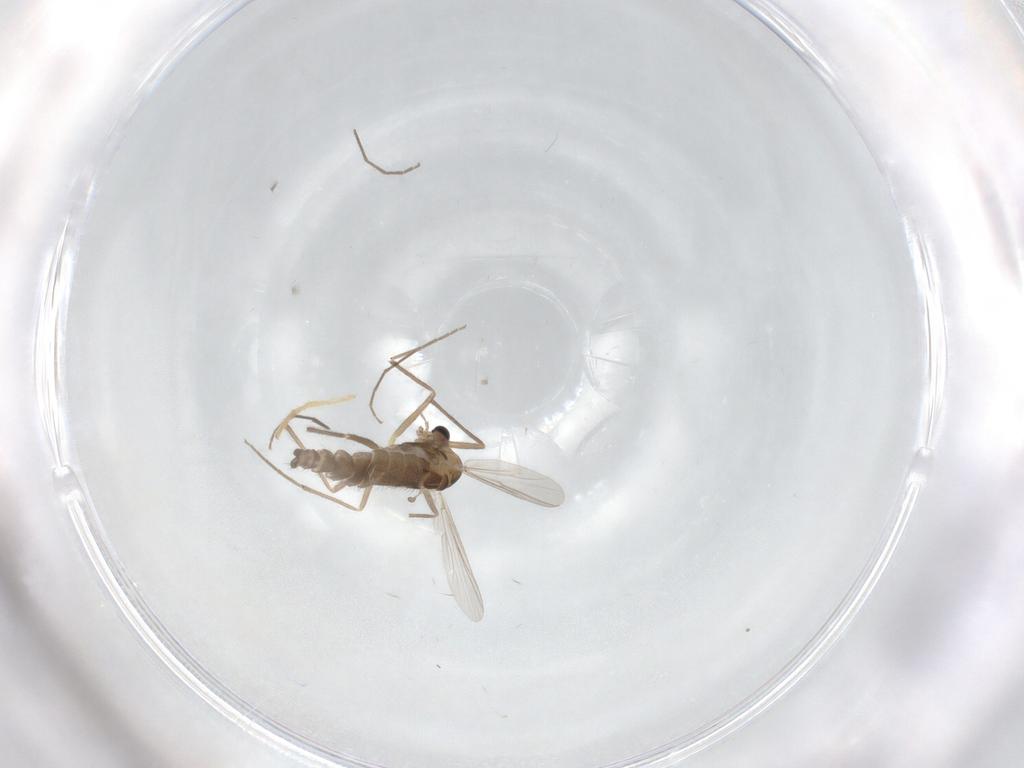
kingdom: Animalia
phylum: Arthropoda
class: Insecta
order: Diptera
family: Chironomidae
